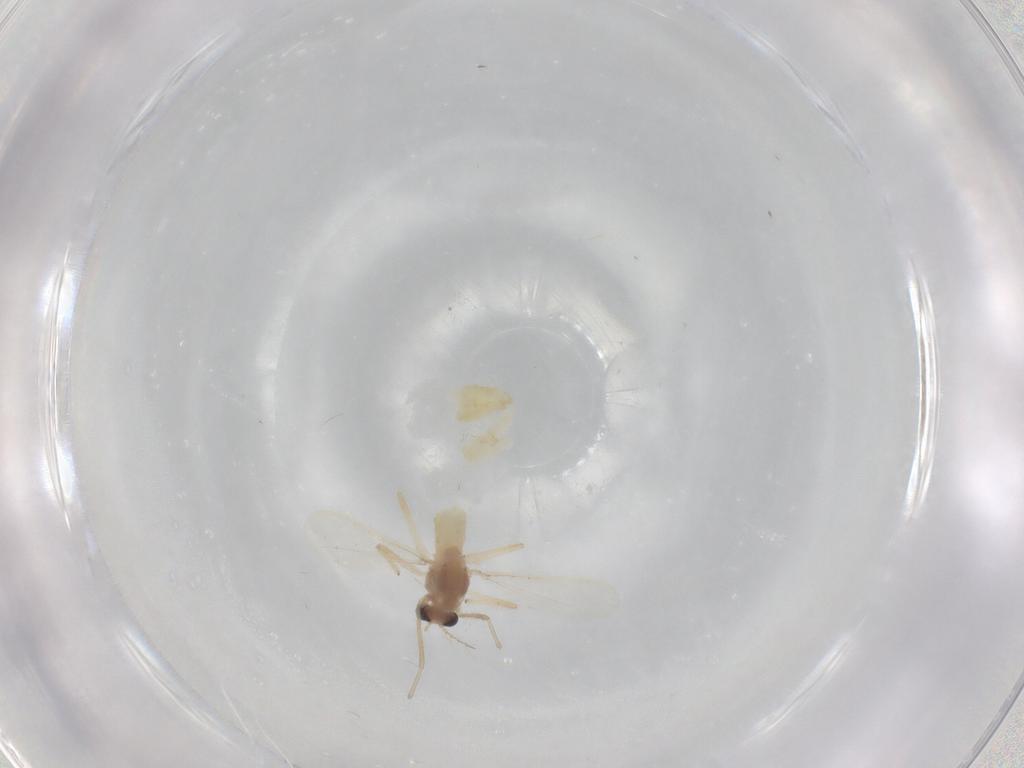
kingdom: Animalia
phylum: Arthropoda
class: Insecta
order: Diptera
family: Chironomidae
